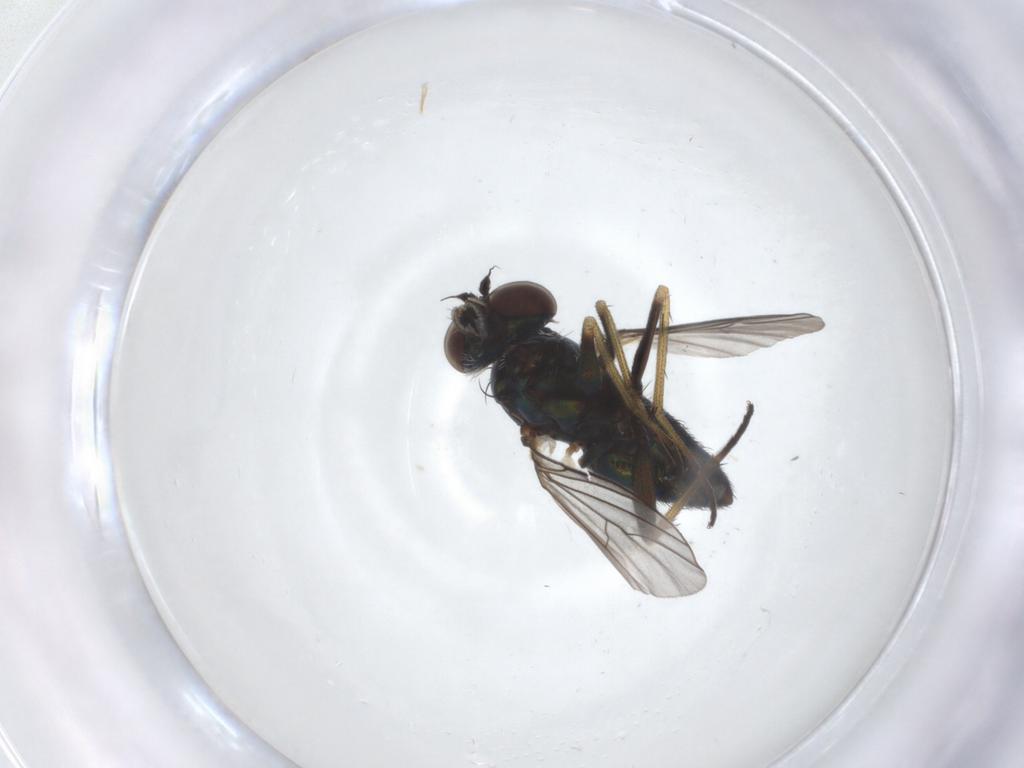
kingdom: Animalia
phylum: Arthropoda
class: Insecta
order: Diptera
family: Dolichopodidae
